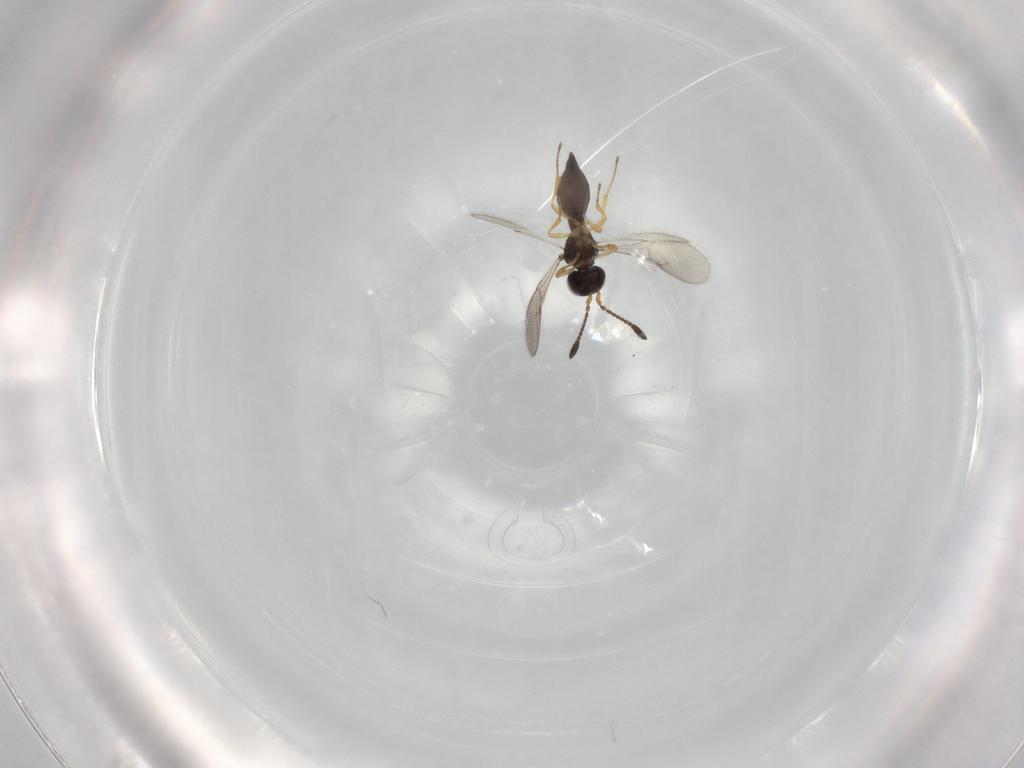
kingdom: Animalia
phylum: Arthropoda
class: Insecta
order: Hymenoptera
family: Scelionidae
